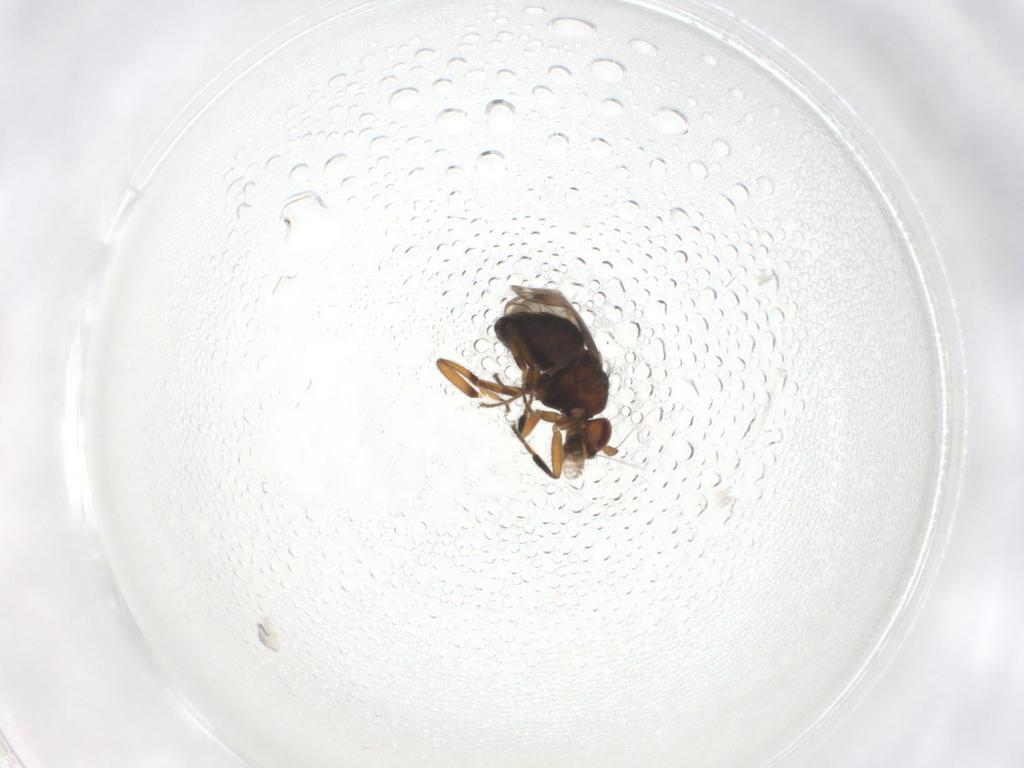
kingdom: Animalia
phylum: Arthropoda
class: Insecta
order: Diptera
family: Sphaeroceridae
